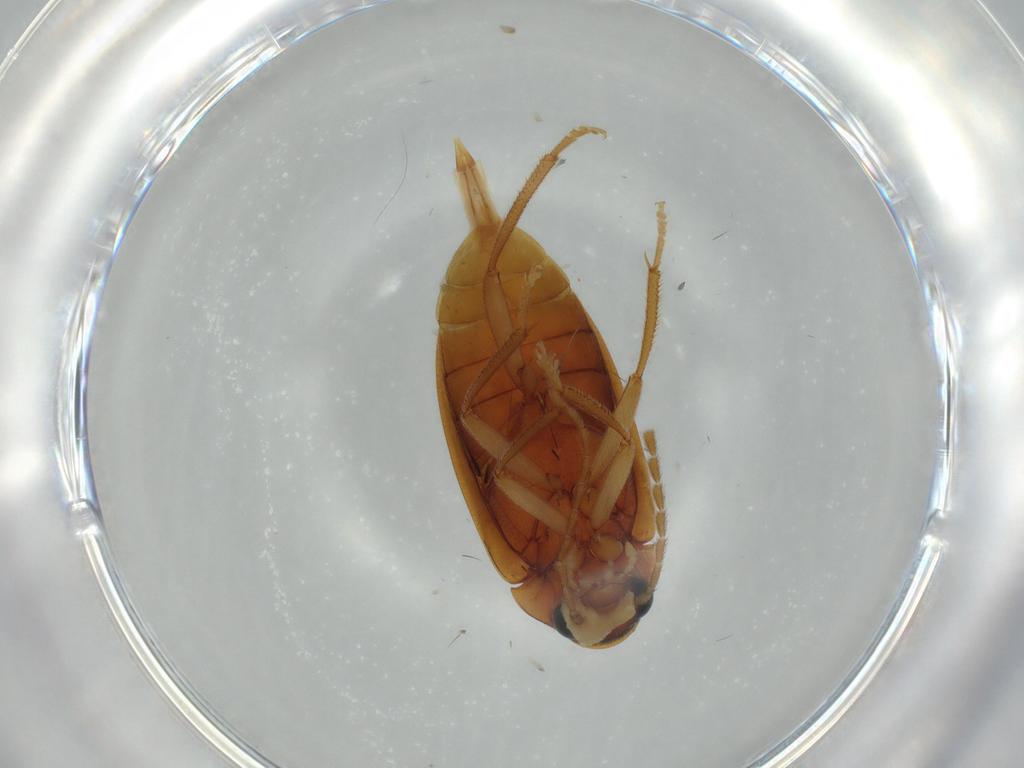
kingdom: Animalia
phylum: Arthropoda
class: Insecta
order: Coleoptera
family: Ptilodactylidae
